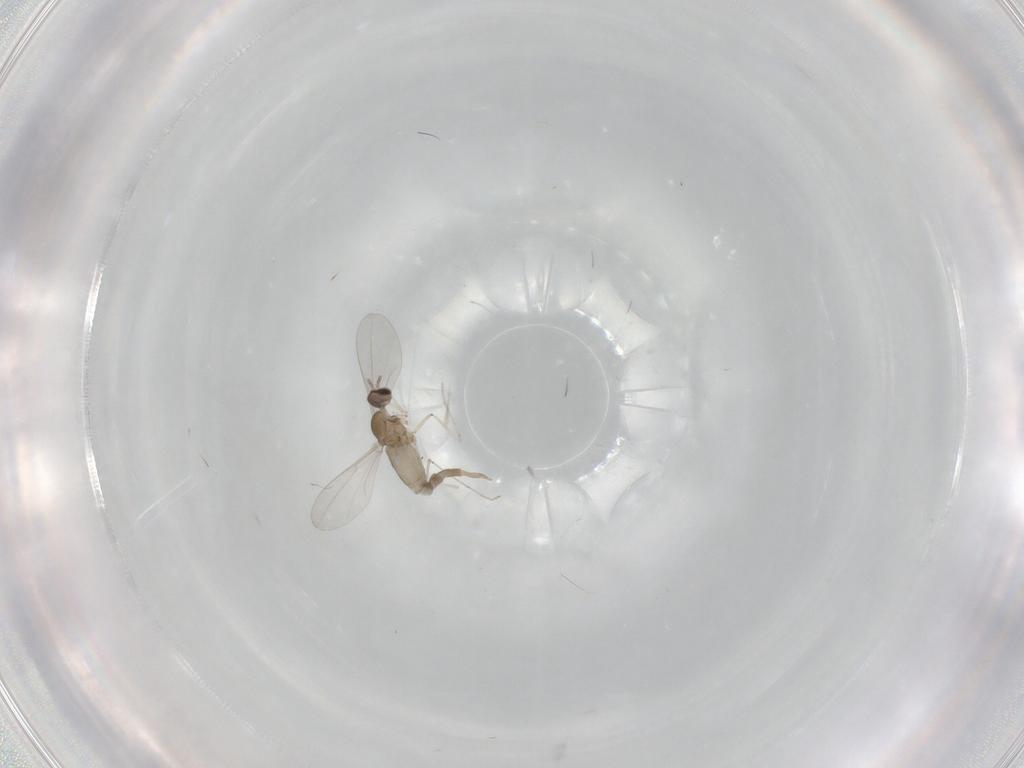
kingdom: Animalia
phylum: Arthropoda
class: Insecta
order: Diptera
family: Cecidomyiidae
